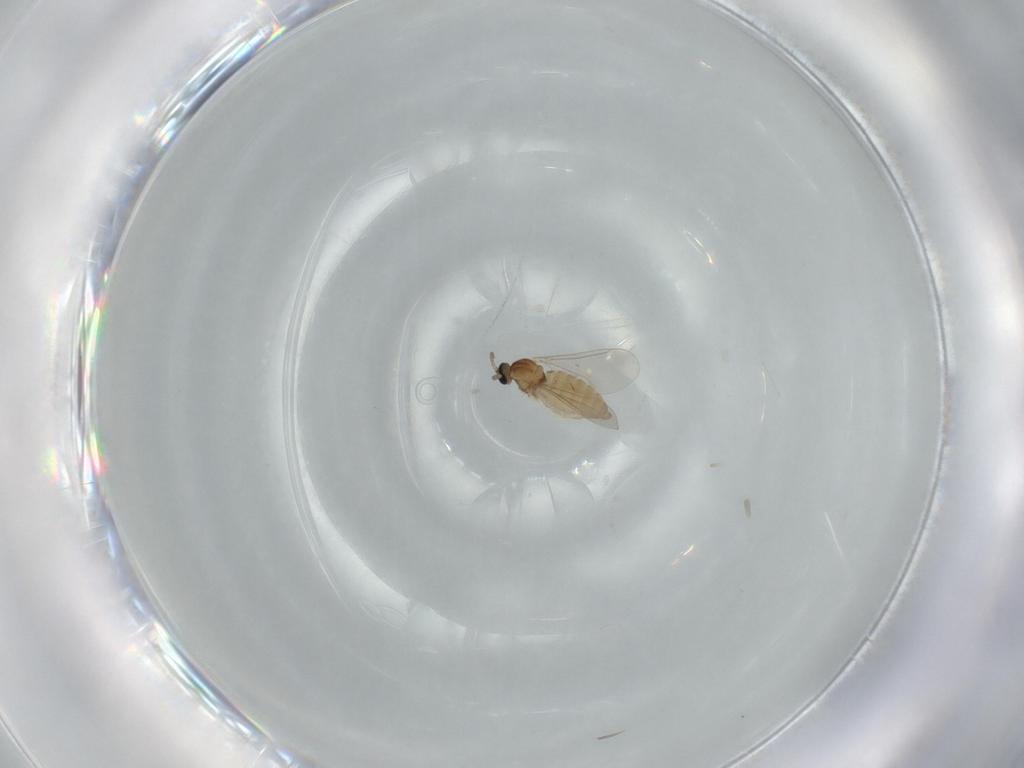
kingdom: Animalia
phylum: Arthropoda
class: Insecta
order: Diptera
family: Cecidomyiidae
